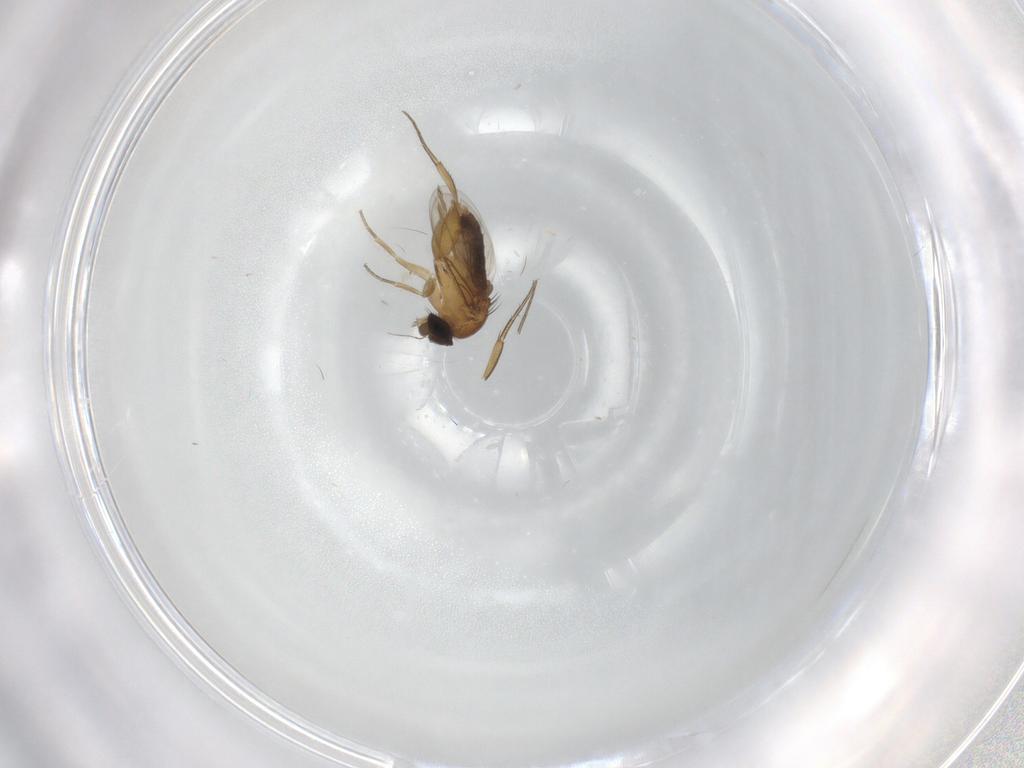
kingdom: Animalia
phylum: Arthropoda
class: Insecta
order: Diptera
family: Phoridae
